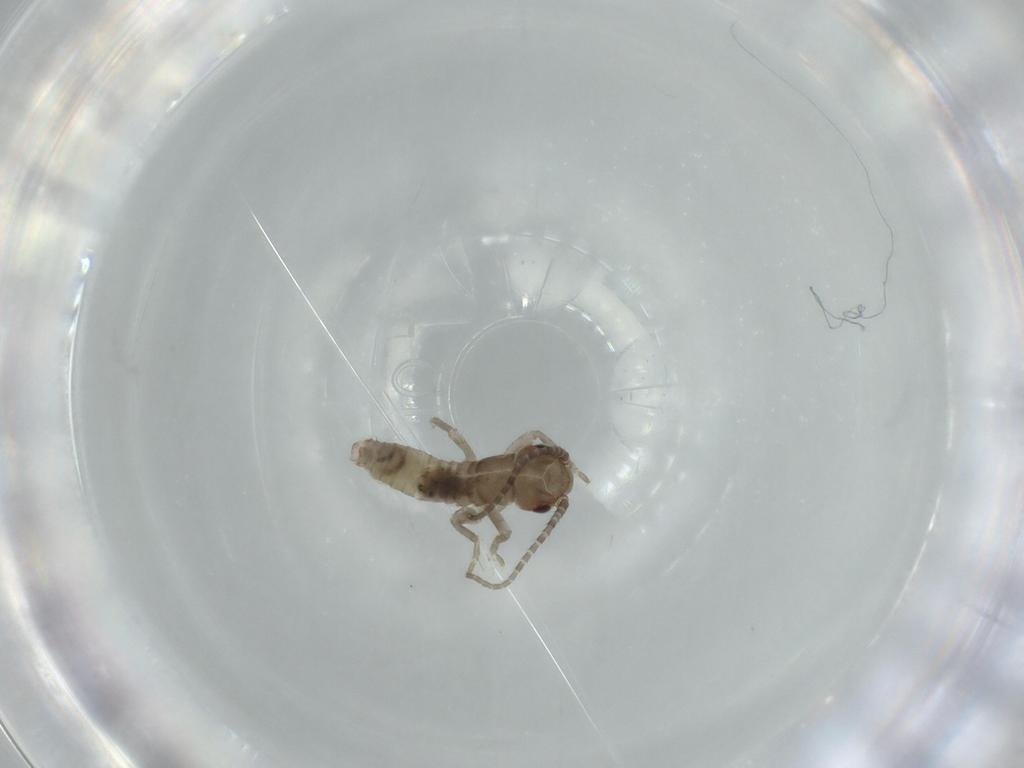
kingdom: Animalia
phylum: Arthropoda
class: Insecta
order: Orthoptera
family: Gryllidae
